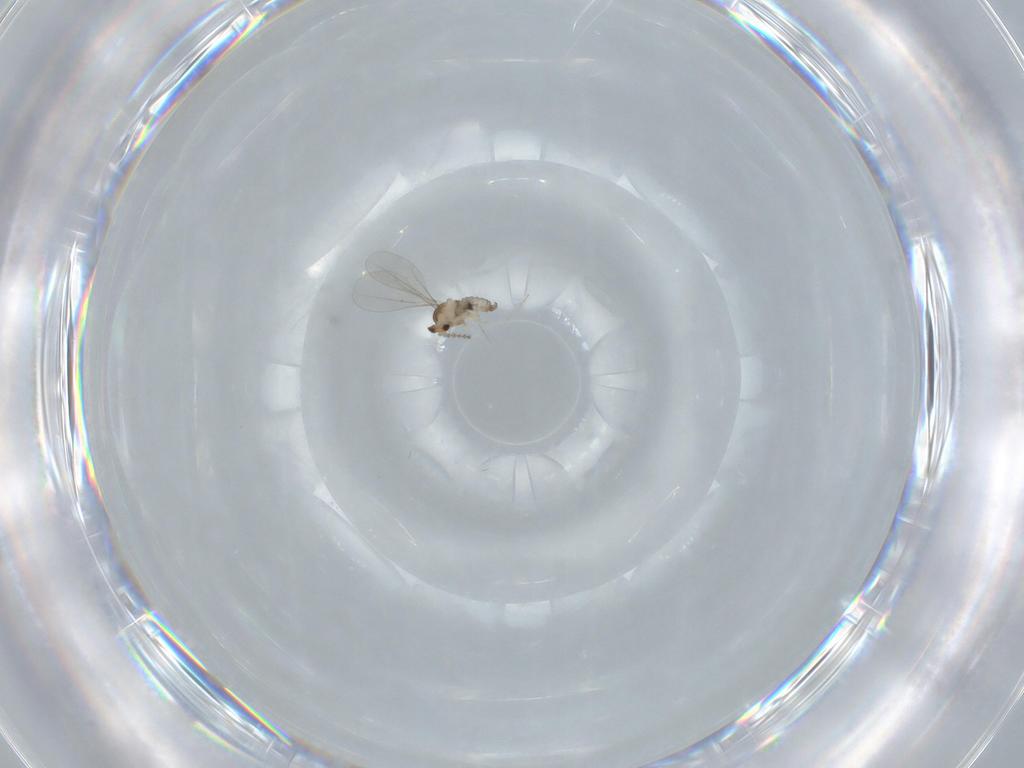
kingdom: Animalia
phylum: Arthropoda
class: Insecta
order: Diptera
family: Cecidomyiidae
